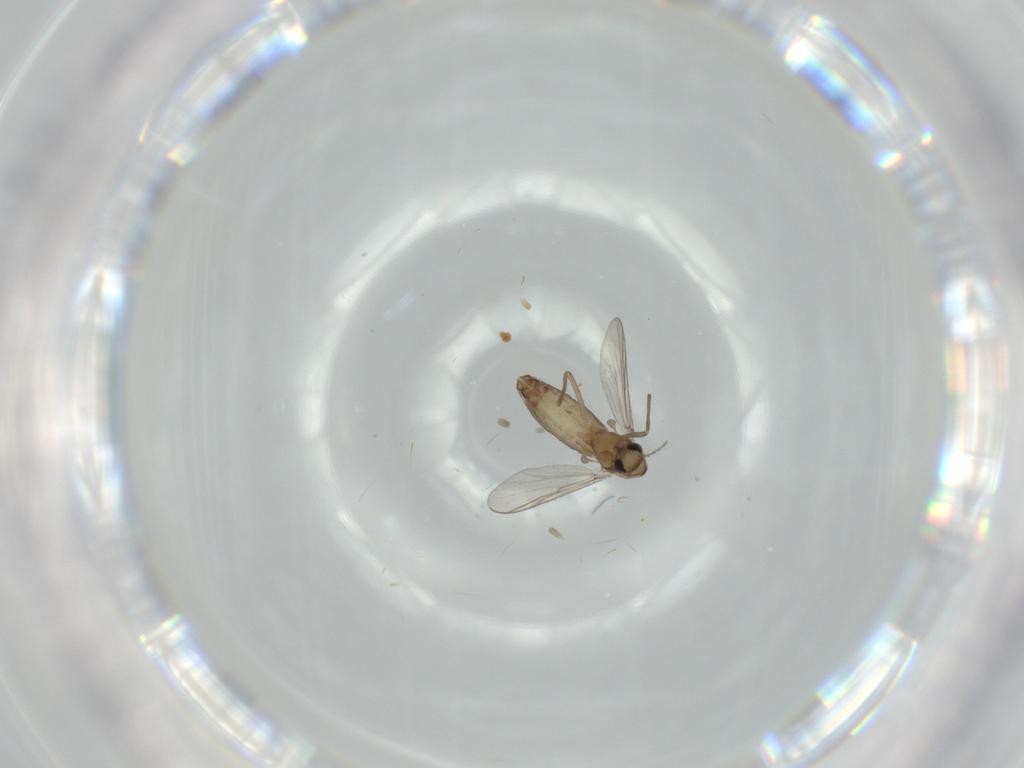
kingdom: Animalia
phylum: Arthropoda
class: Insecta
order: Diptera
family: Chironomidae
